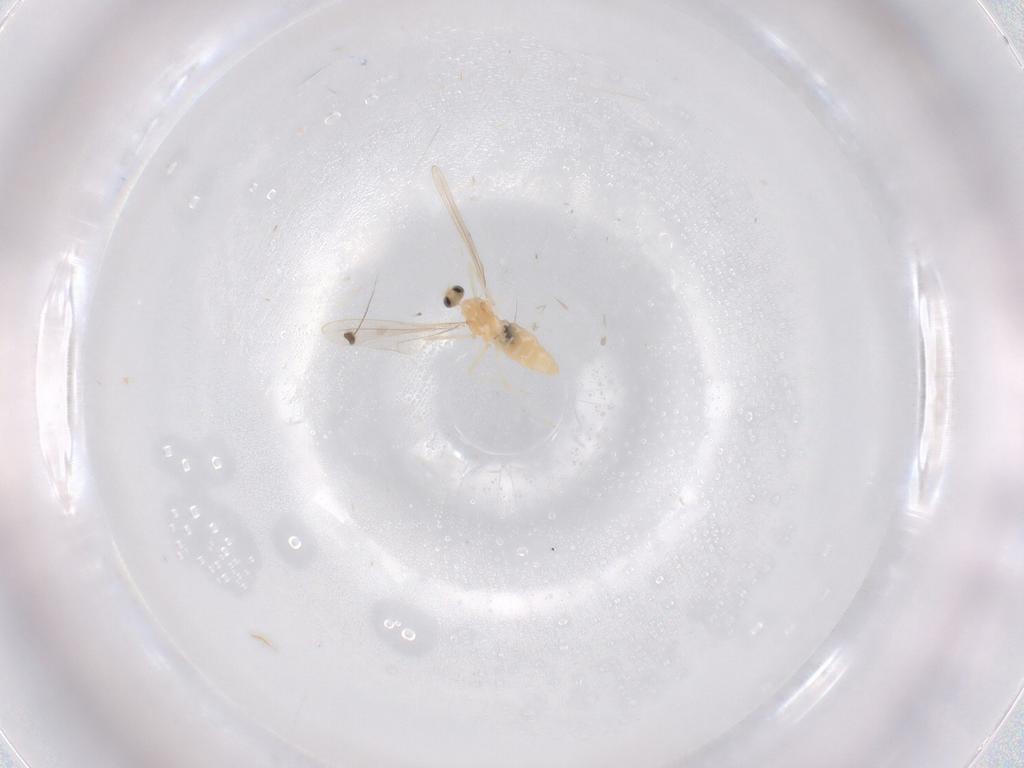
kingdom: Animalia
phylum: Arthropoda
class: Insecta
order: Diptera
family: Cecidomyiidae
